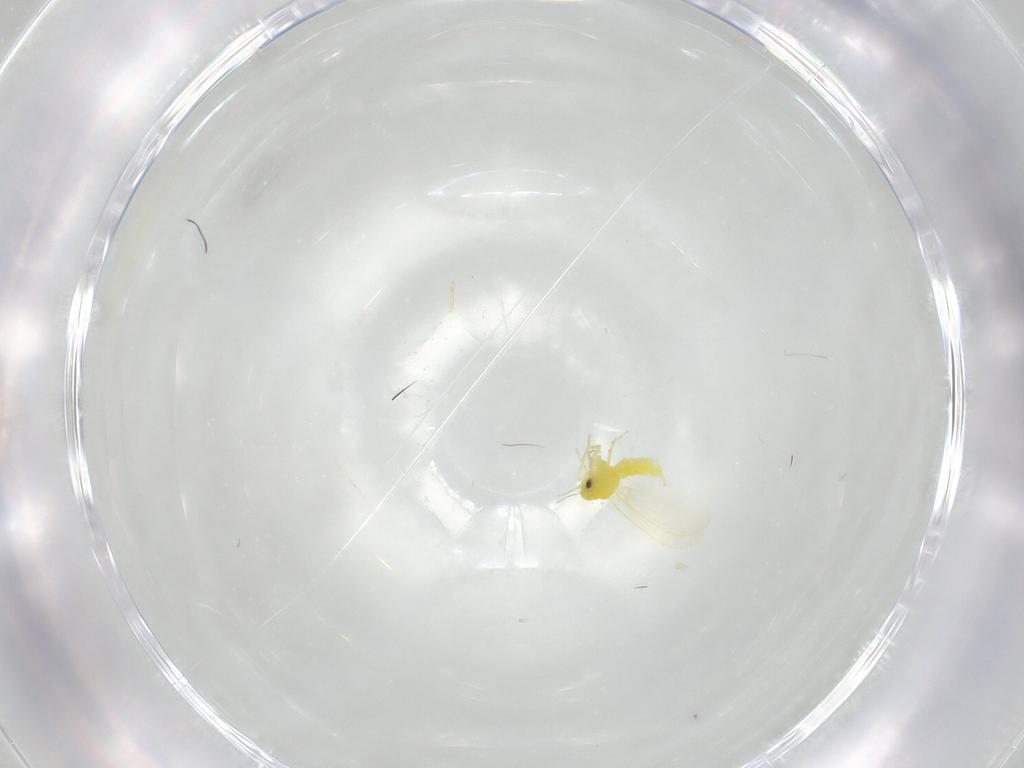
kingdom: Animalia
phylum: Arthropoda
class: Insecta
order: Hemiptera
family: Aleyrodidae
